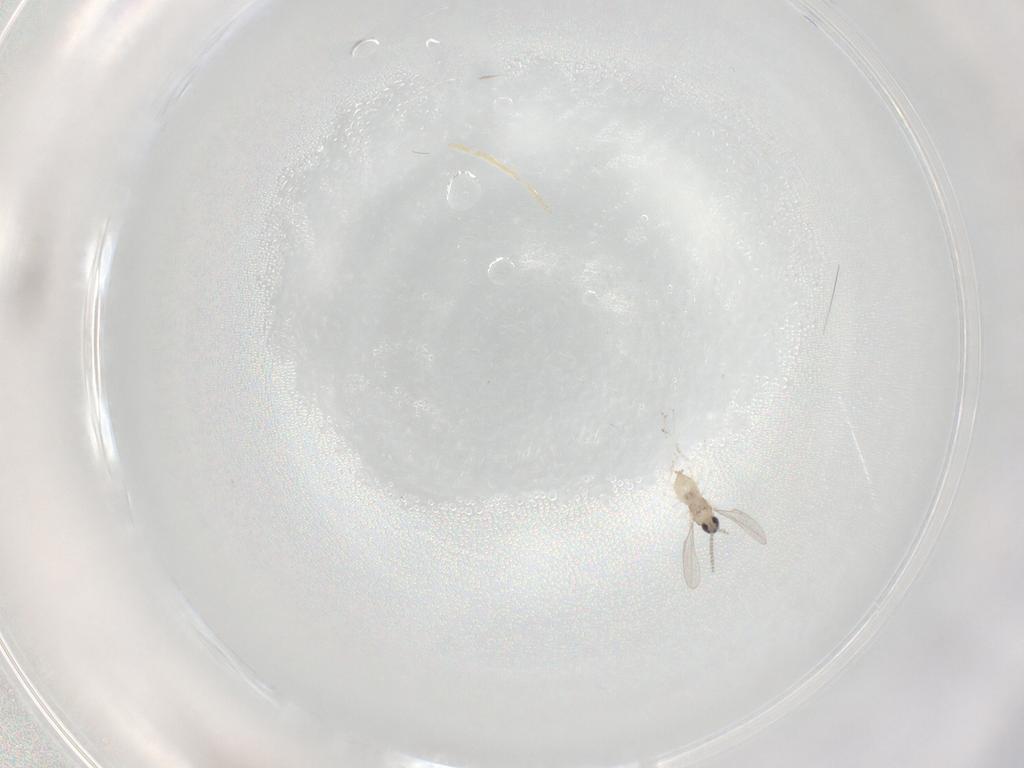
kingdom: Animalia
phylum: Arthropoda
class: Insecta
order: Diptera
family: Cecidomyiidae
